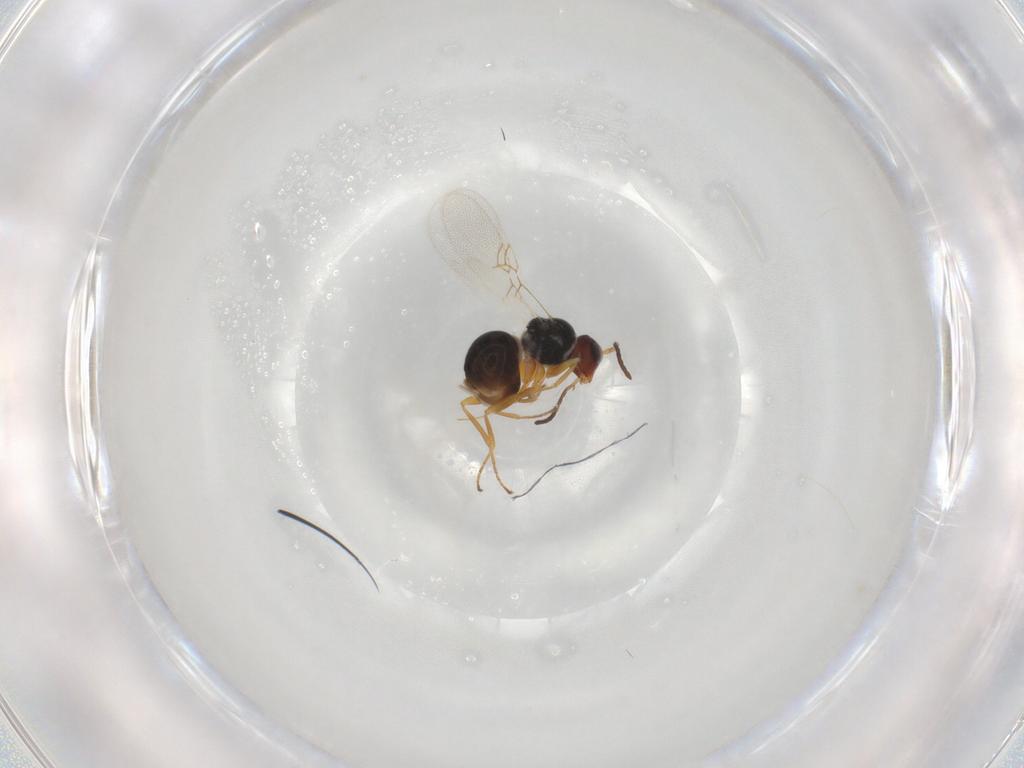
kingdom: Animalia
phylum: Arthropoda
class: Insecta
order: Hymenoptera
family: Figitidae
